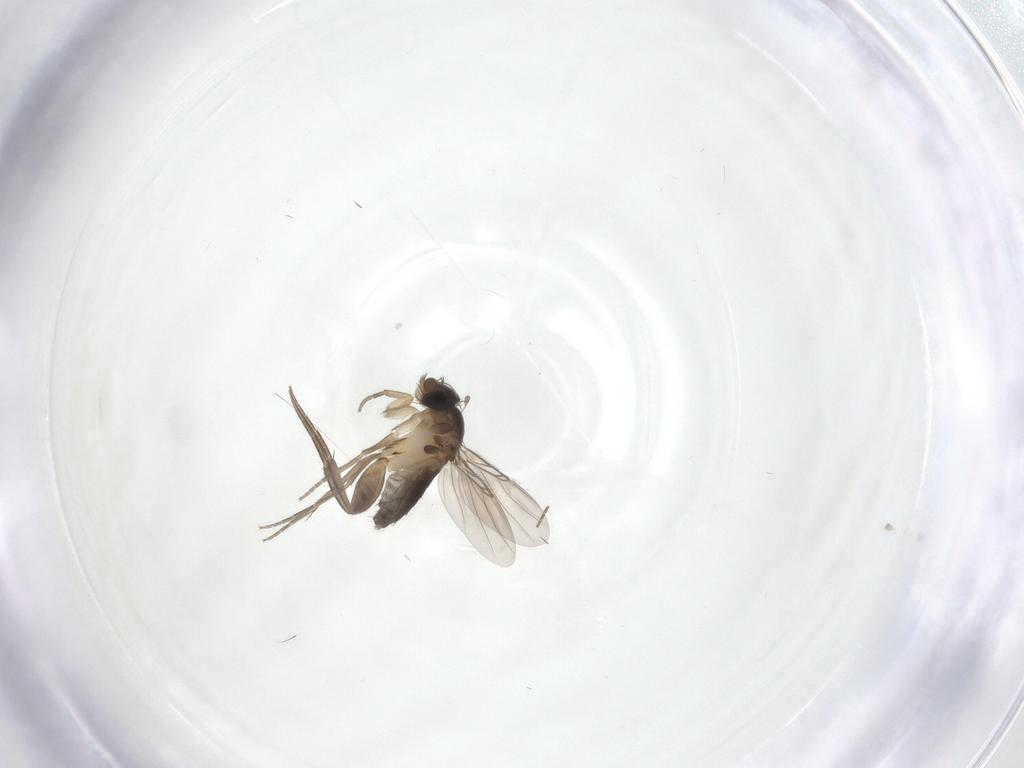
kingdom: Animalia
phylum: Arthropoda
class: Insecta
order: Diptera
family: Phoridae
